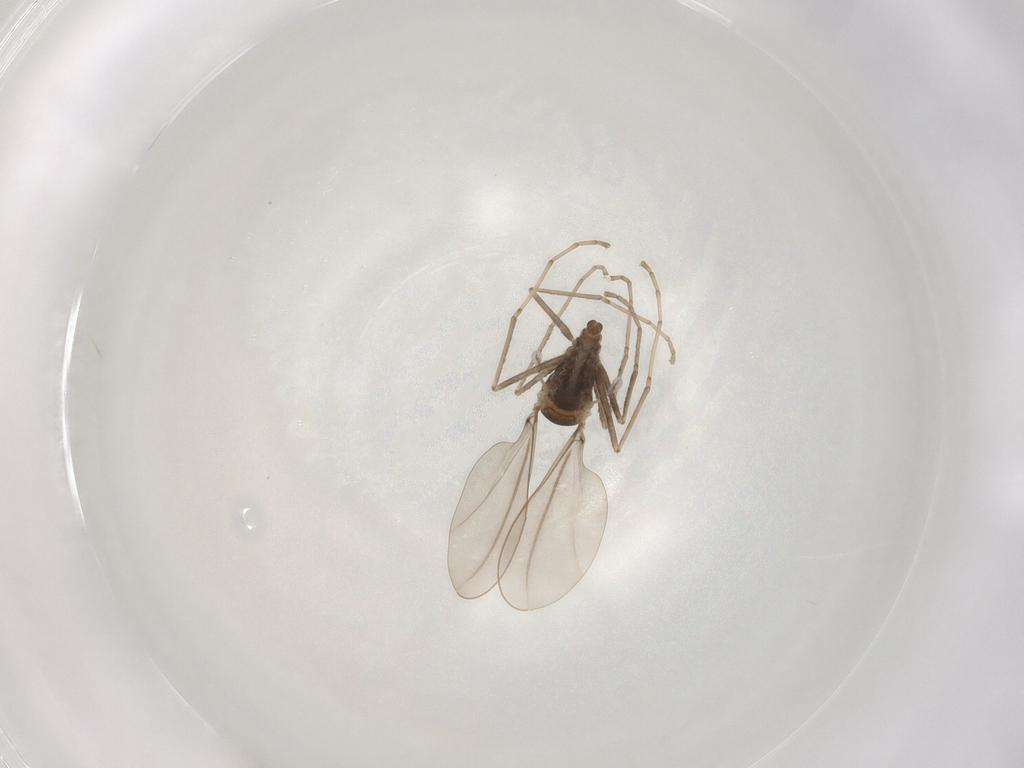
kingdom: Animalia
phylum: Arthropoda
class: Insecta
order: Diptera
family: Cecidomyiidae
